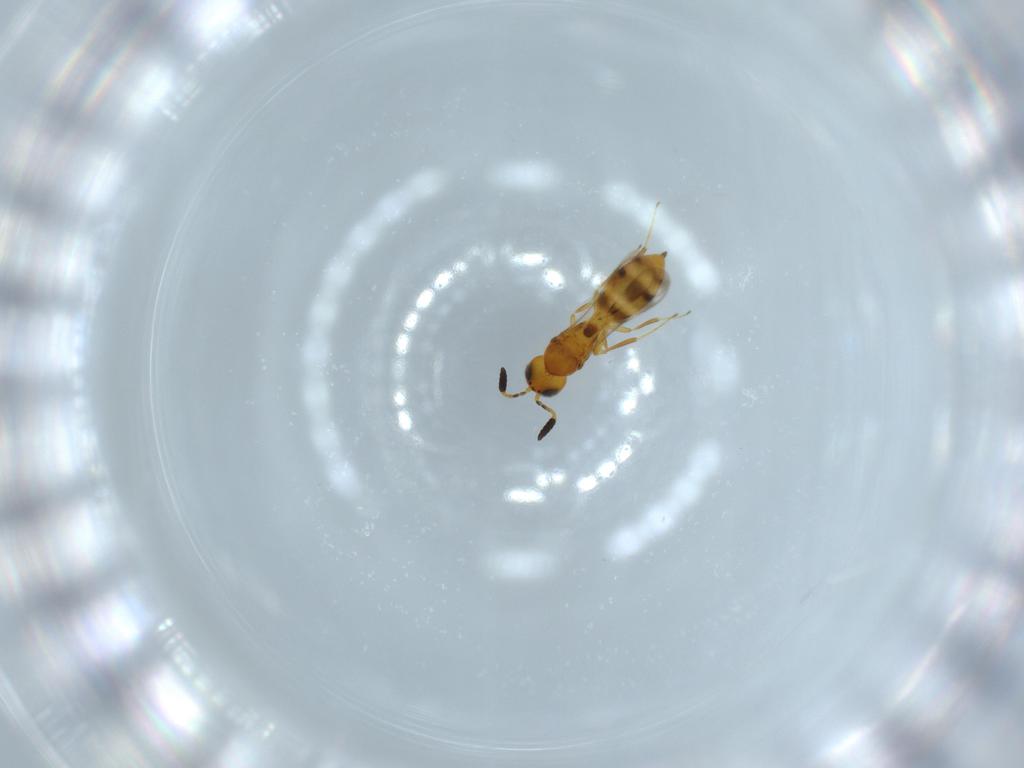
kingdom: Animalia
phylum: Arthropoda
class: Insecta
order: Hymenoptera
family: Scelionidae
